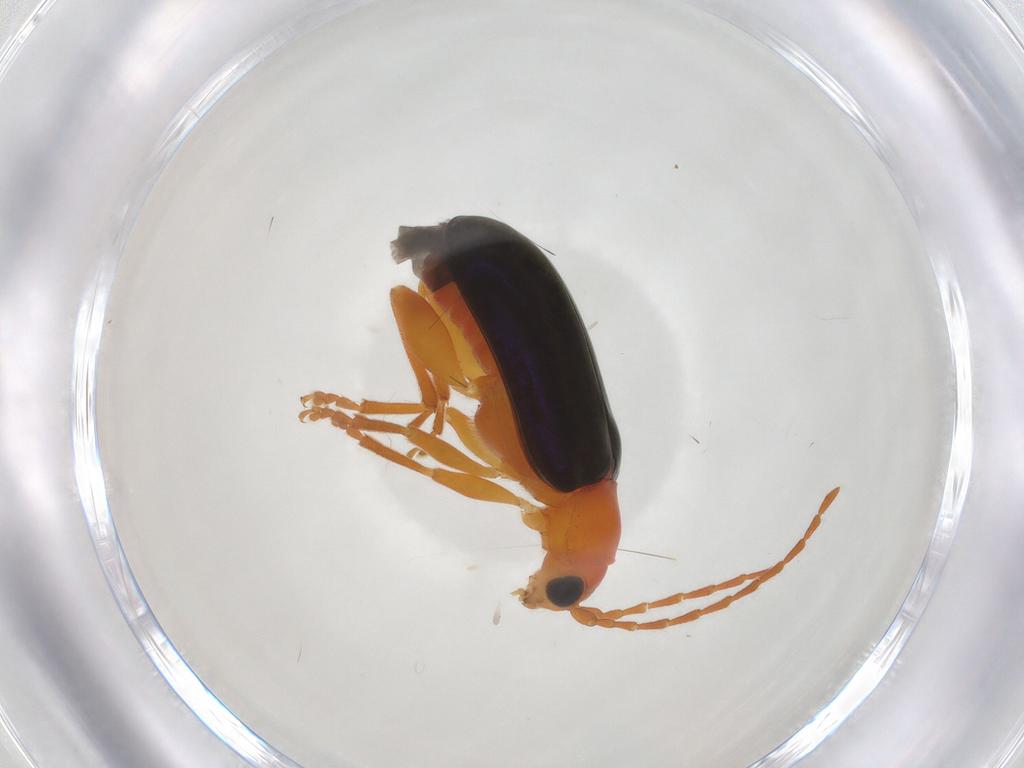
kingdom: Animalia
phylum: Arthropoda
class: Insecta
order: Coleoptera
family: Chrysomelidae
